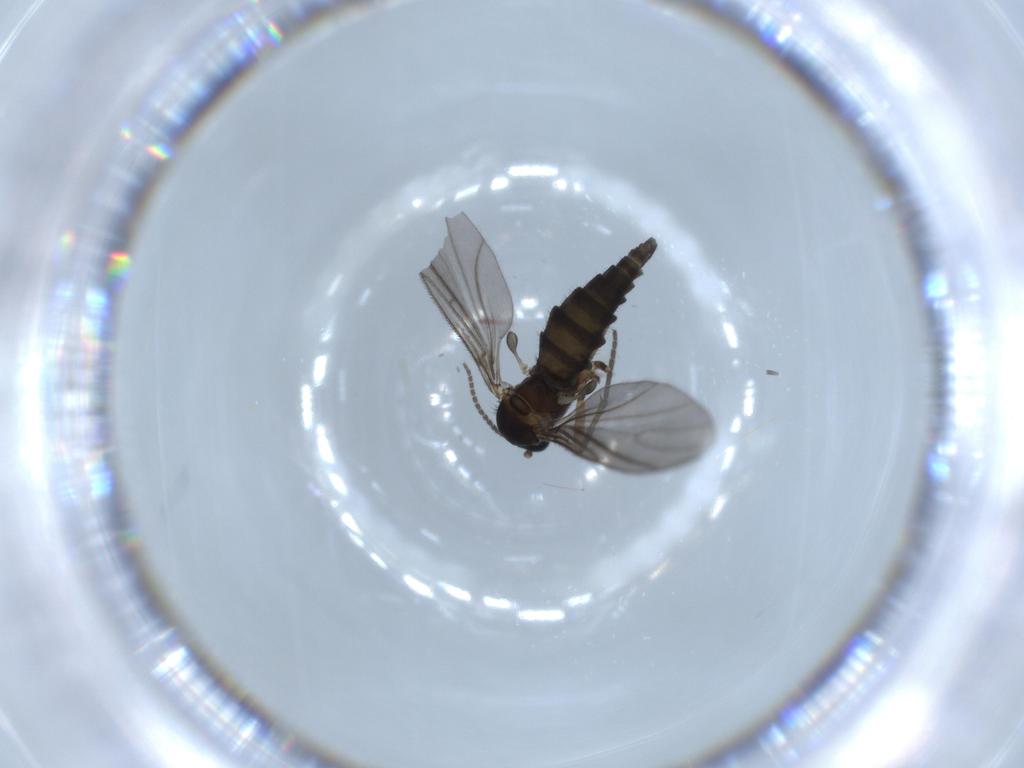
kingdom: Animalia
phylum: Arthropoda
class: Insecta
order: Diptera
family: Sciaridae
